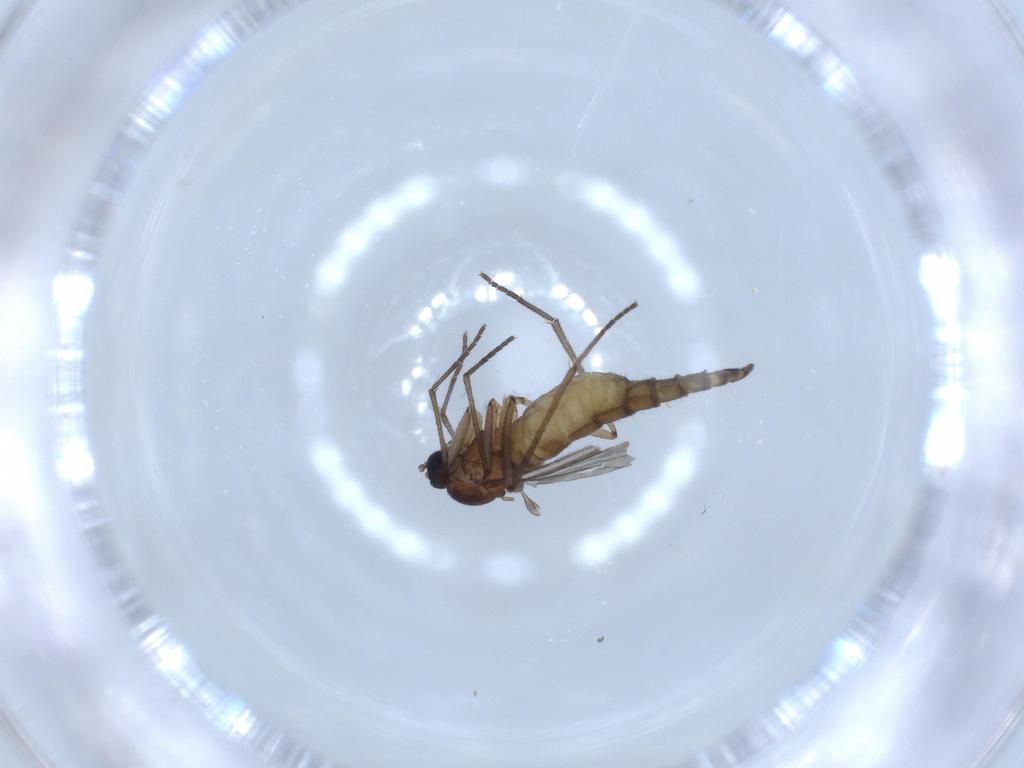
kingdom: Animalia
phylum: Arthropoda
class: Insecta
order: Diptera
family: Sciaridae
